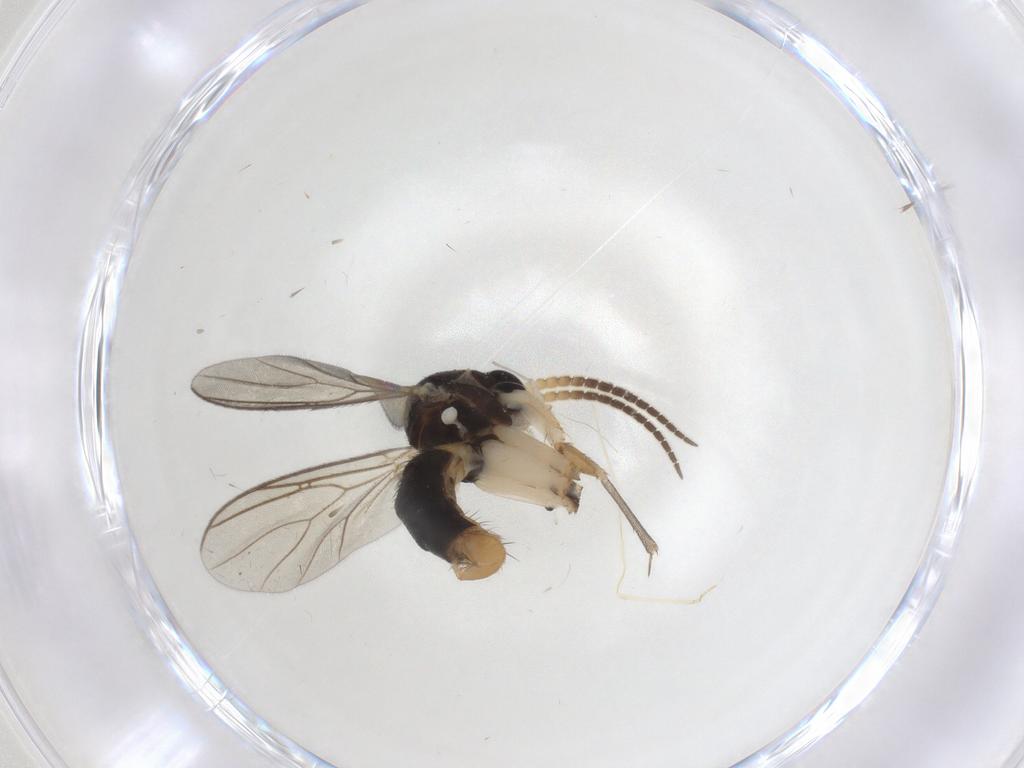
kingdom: Animalia
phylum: Arthropoda
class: Insecta
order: Diptera
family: Mycetophilidae
